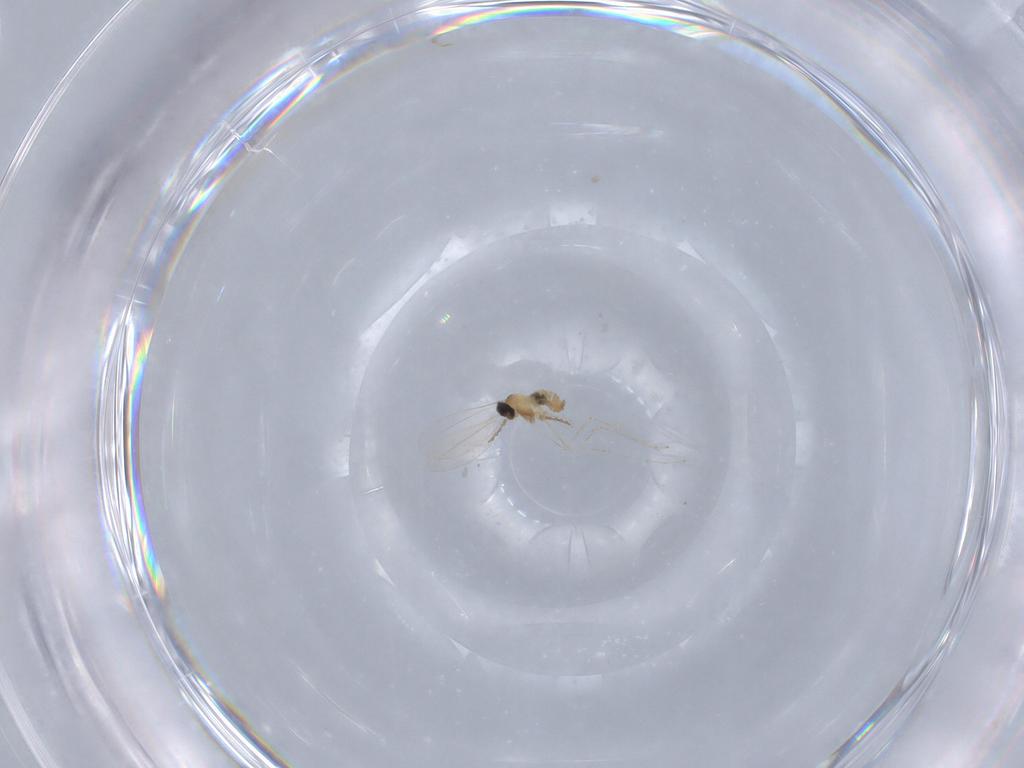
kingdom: Animalia
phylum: Arthropoda
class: Insecta
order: Diptera
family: Cecidomyiidae
